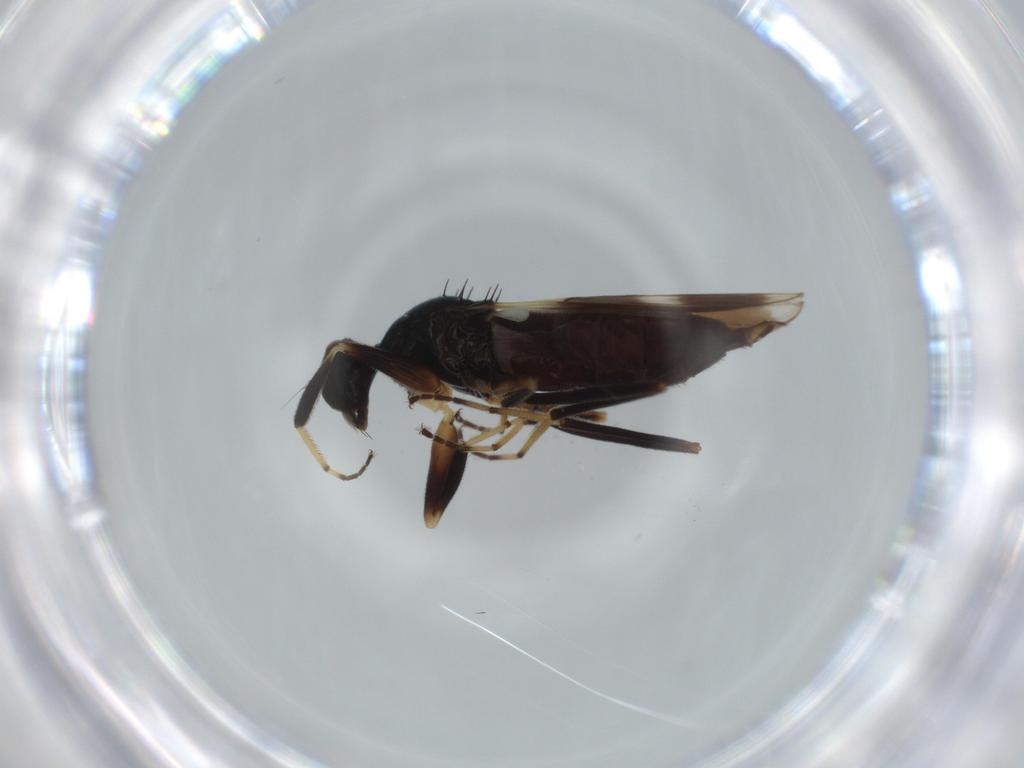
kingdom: Animalia
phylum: Arthropoda
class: Insecta
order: Diptera
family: Hybotidae
